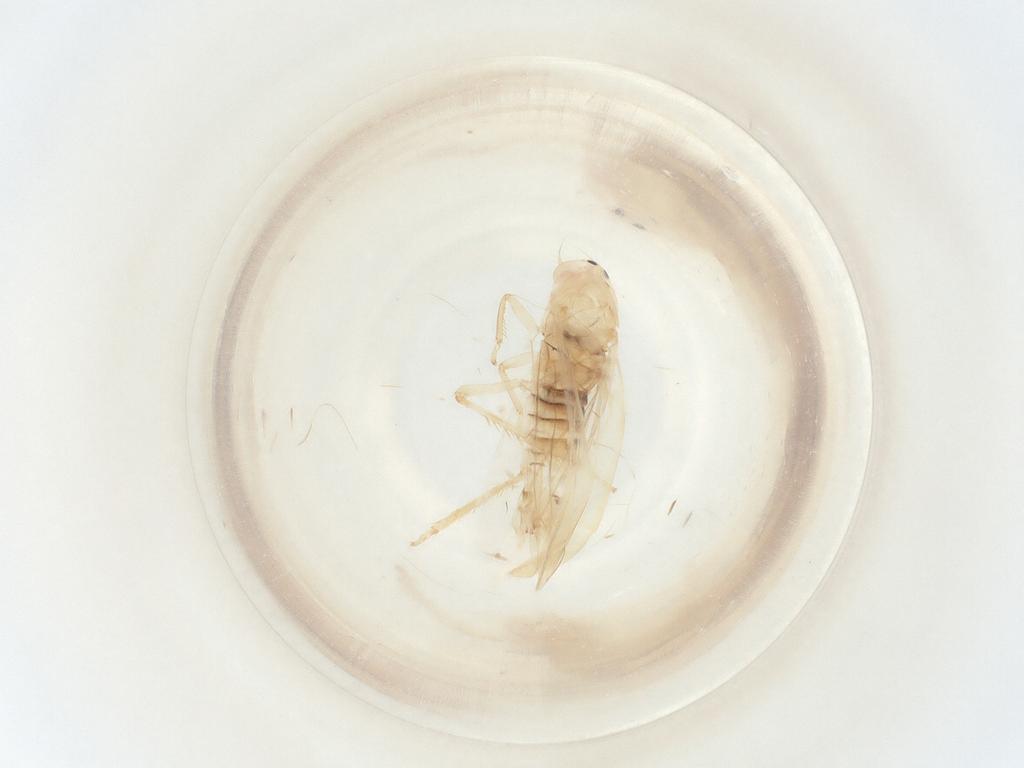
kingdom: Animalia
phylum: Arthropoda
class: Insecta
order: Hemiptera
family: Cicadellidae
